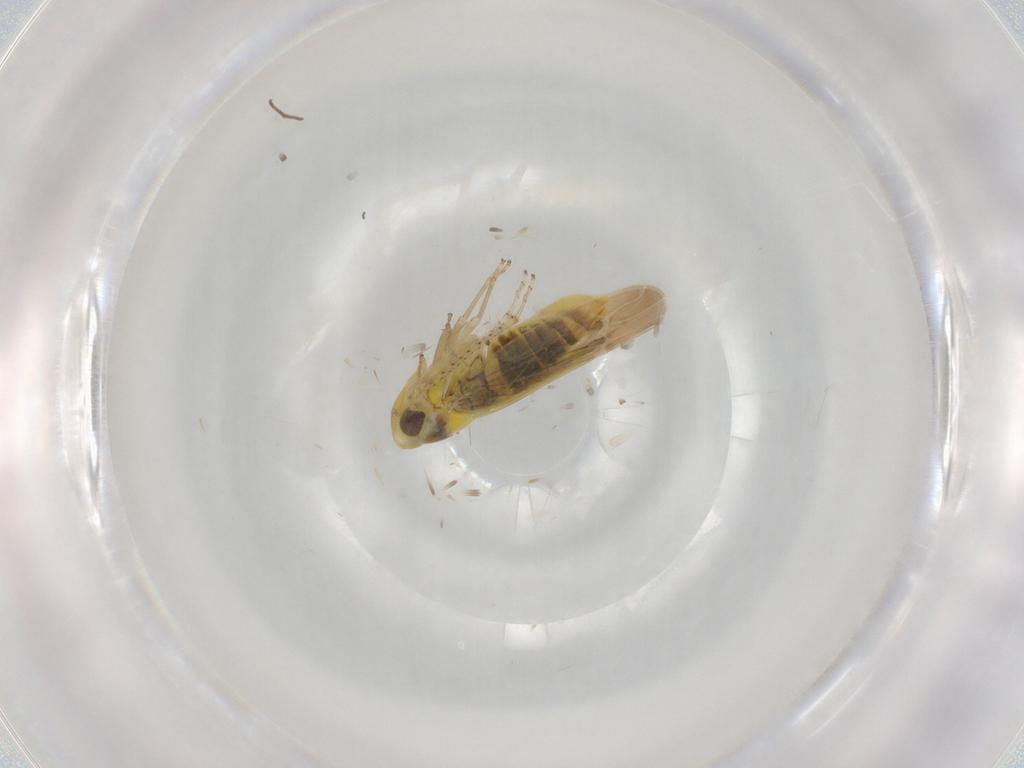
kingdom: Animalia
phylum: Arthropoda
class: Insecta
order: Hemiptera
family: Cicadellidae
